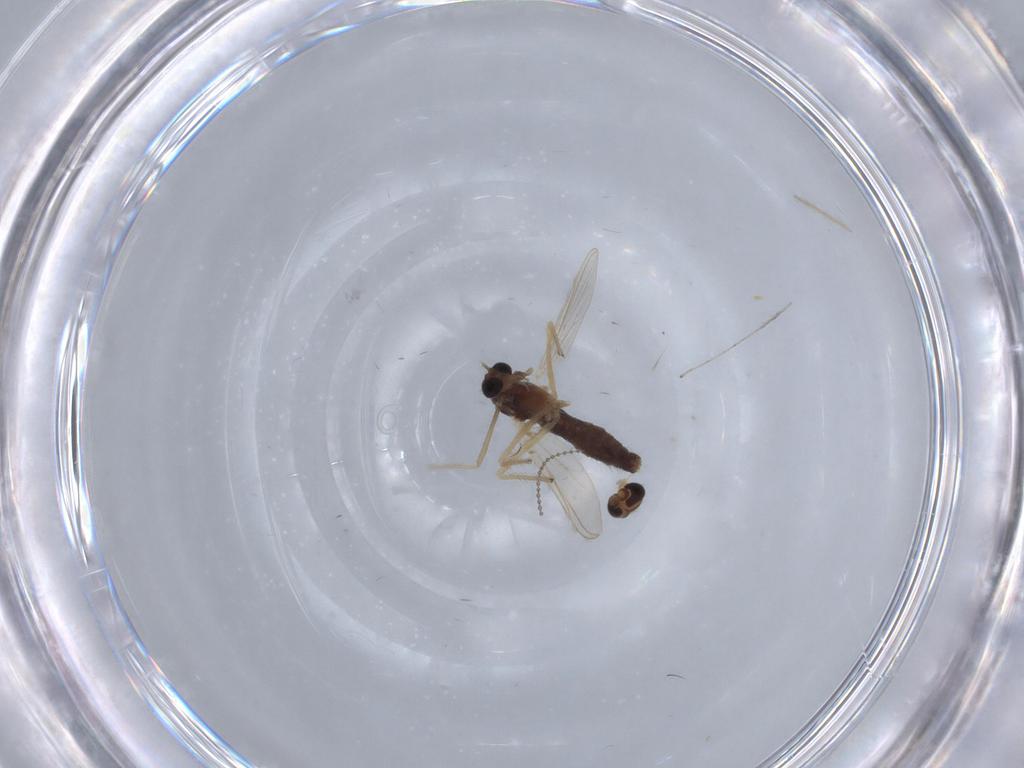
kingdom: Animalia
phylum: Arthropoda
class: Insecta
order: Diptera
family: Chironomidae
